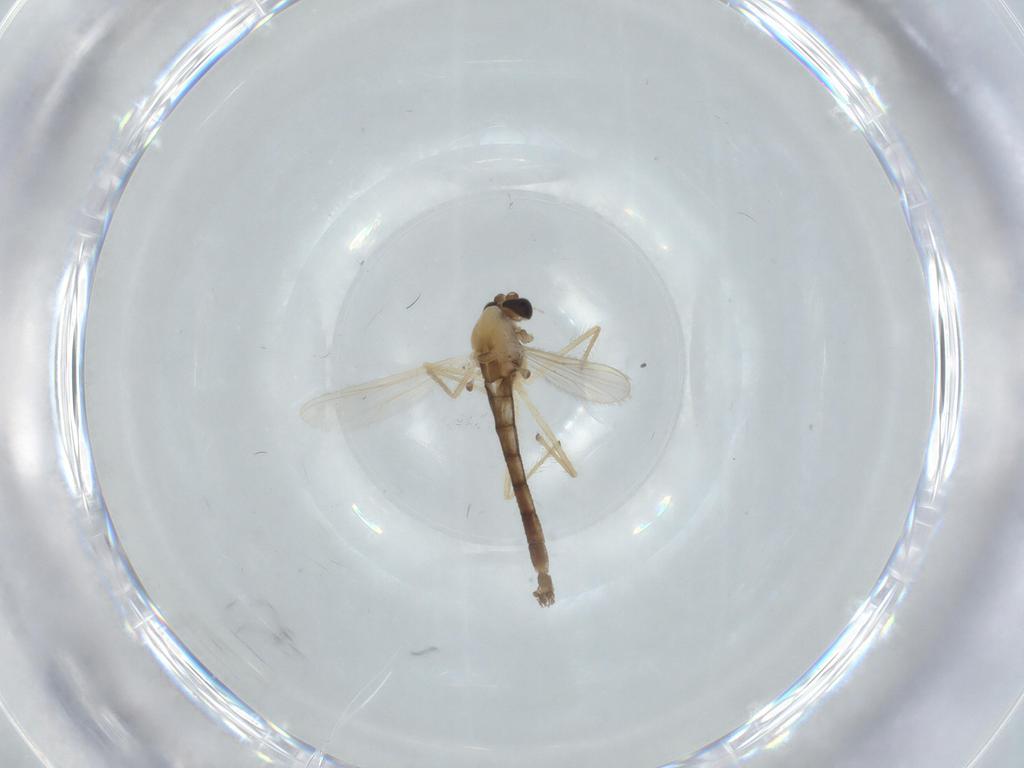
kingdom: Animalia
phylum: Arthropoda
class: Insecta
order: Diptera
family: Chironomidae
